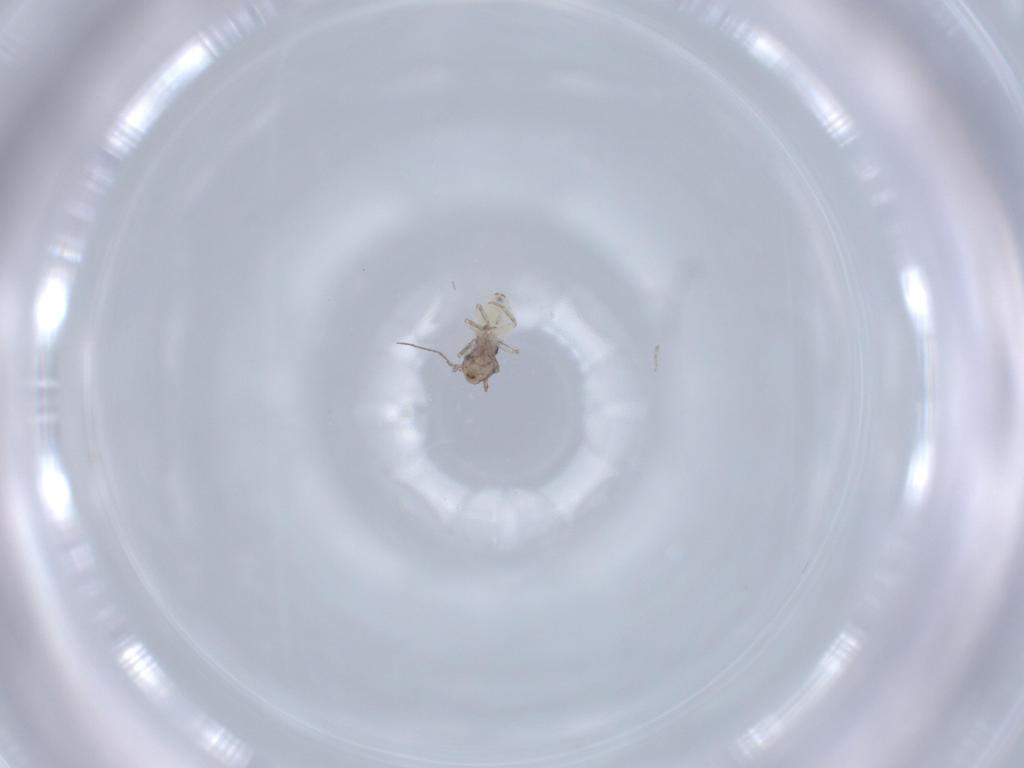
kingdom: Animalia
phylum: Arthropoda
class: Insecta
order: Psocodea
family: Lepidopsocidae
